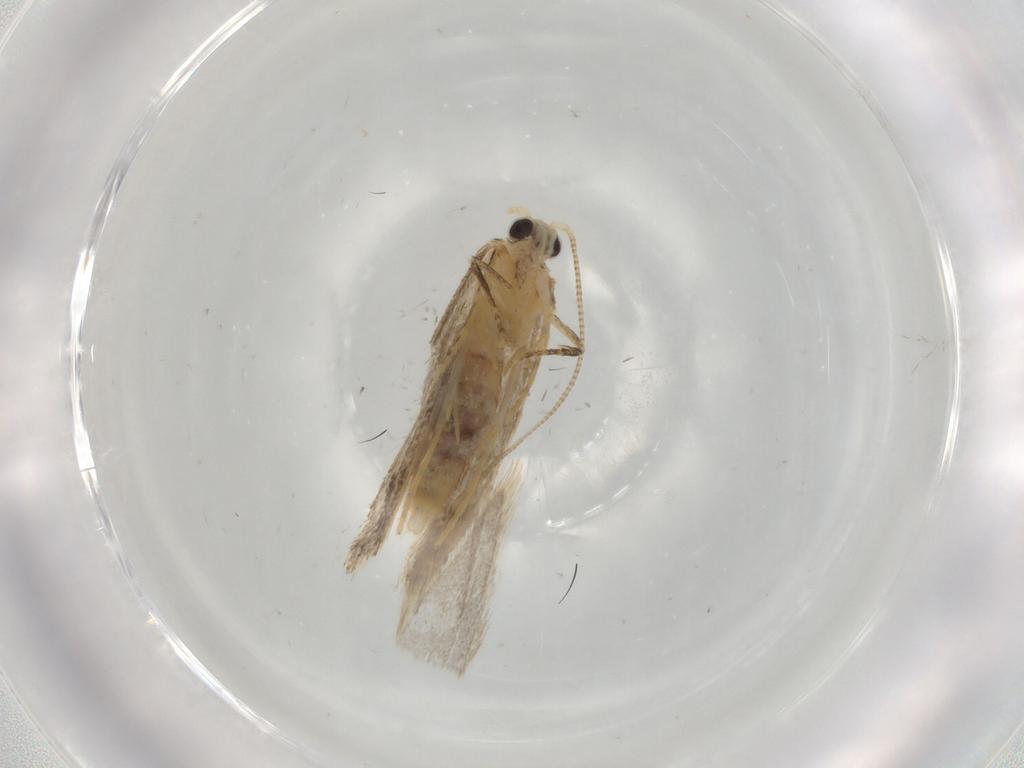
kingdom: Animalia
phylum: Arthropoda
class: Insecta
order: Lepidoptera
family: Nepticulidae
